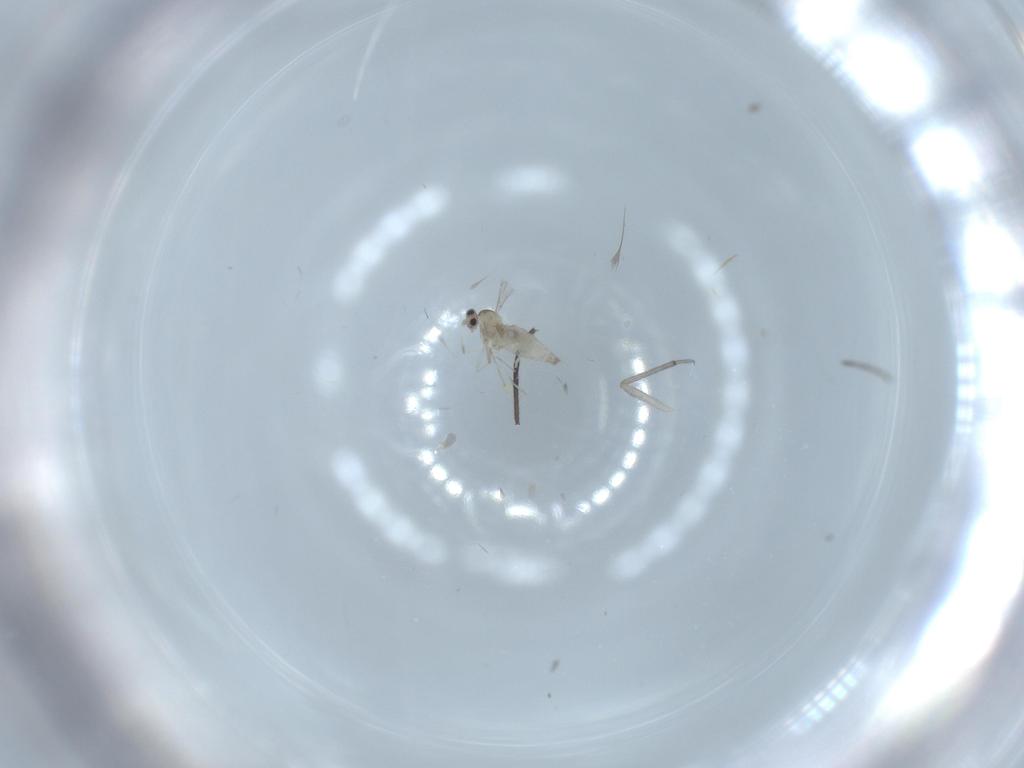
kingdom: Animalia
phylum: Arthropoda
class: Insecta
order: Diptera
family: Cecidomyiidae
